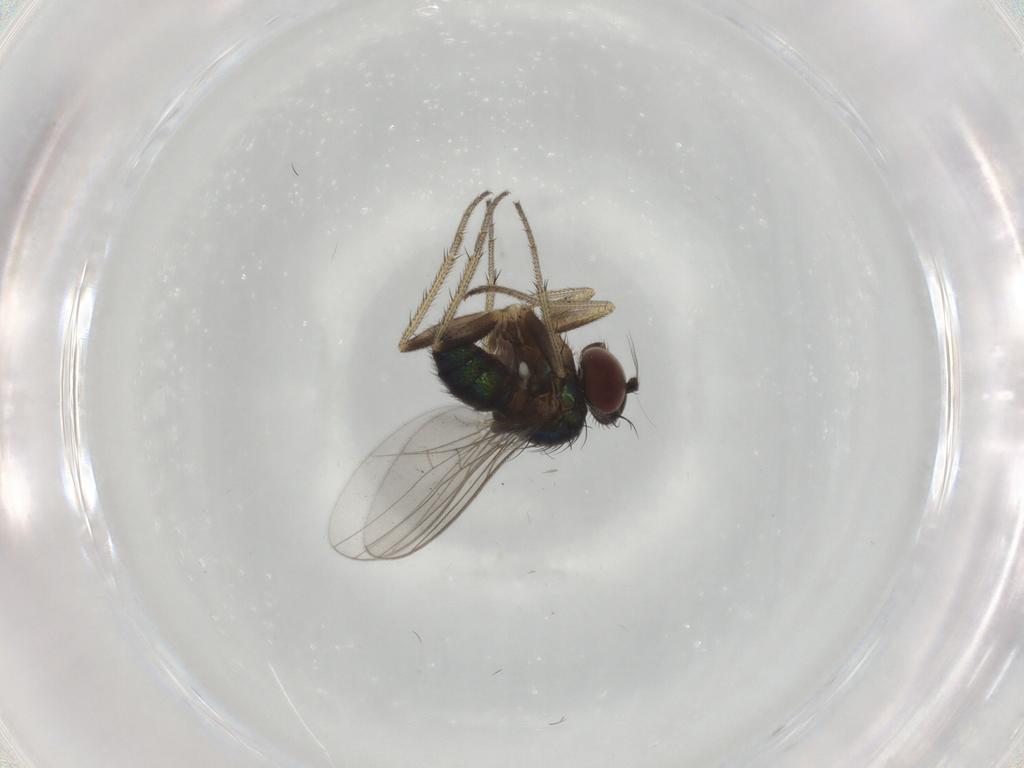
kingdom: Animalia
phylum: Arthropoda
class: Insecta
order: Diptera
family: Dolichopodidae
